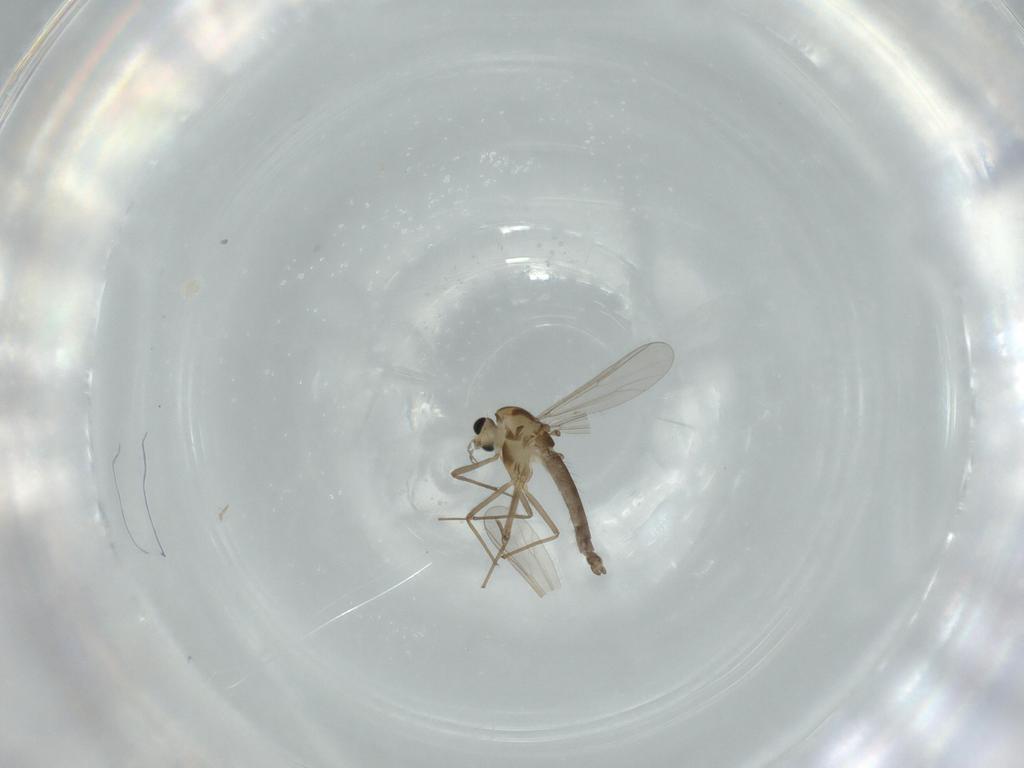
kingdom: Animalia
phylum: Arthropoda
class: Insecta
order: Diptera
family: Chironomidae
